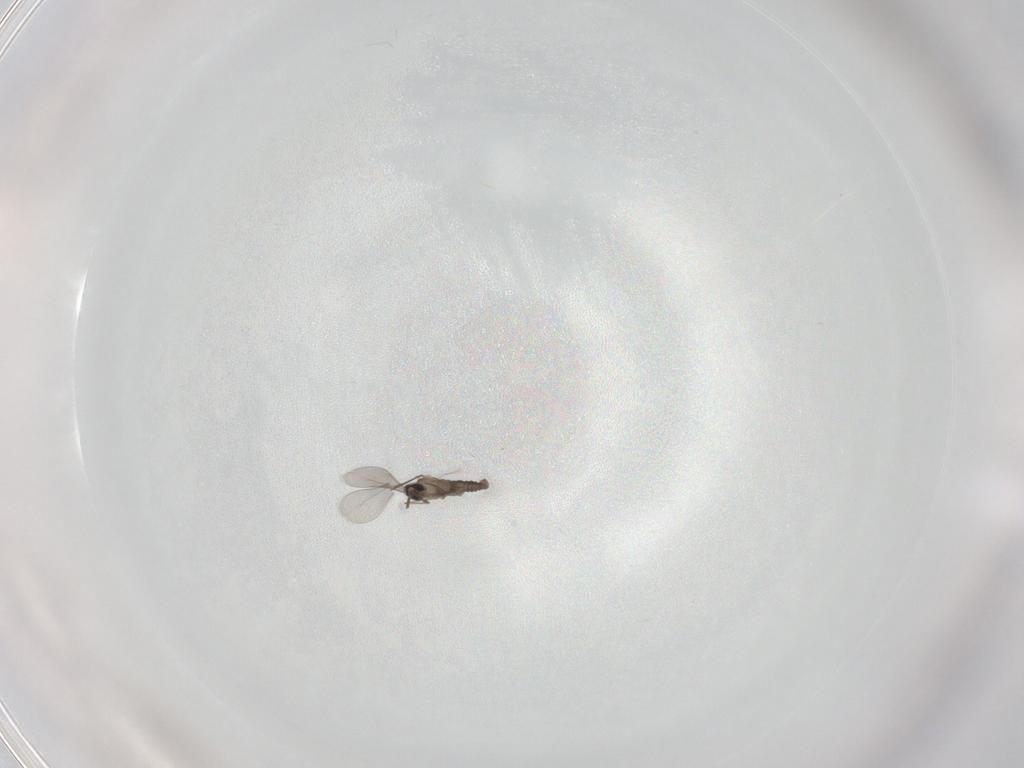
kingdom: Animalia
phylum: Arthropoda
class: Insecta
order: Diptera
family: Cecidomyiidae
